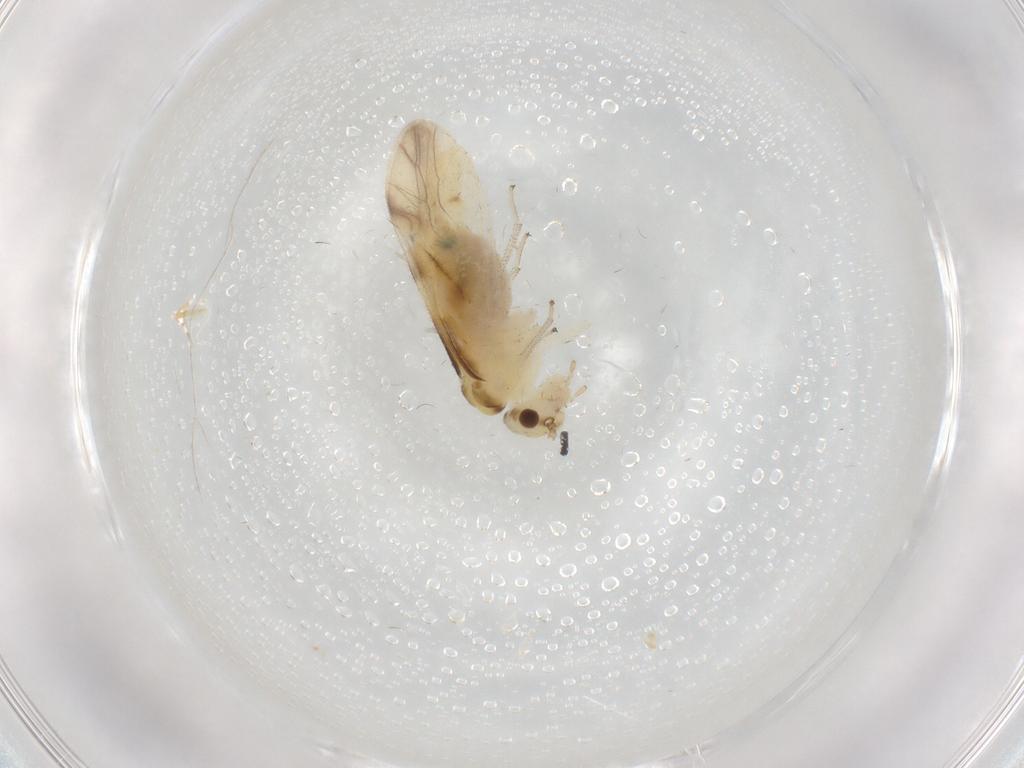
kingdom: Animalia
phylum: Arthropoda
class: Insecta
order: Psocodea
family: Caeciliusidae
